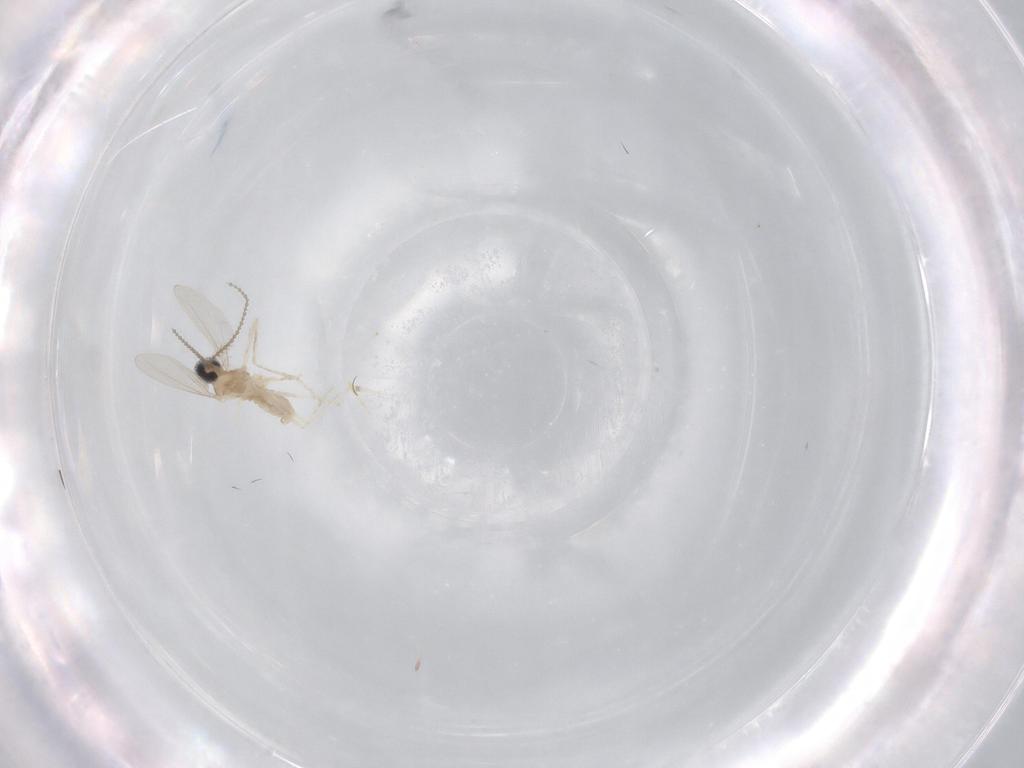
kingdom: Animalia
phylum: Arthropoda
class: Insecta
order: Diptera
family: Cecidomyiidae
